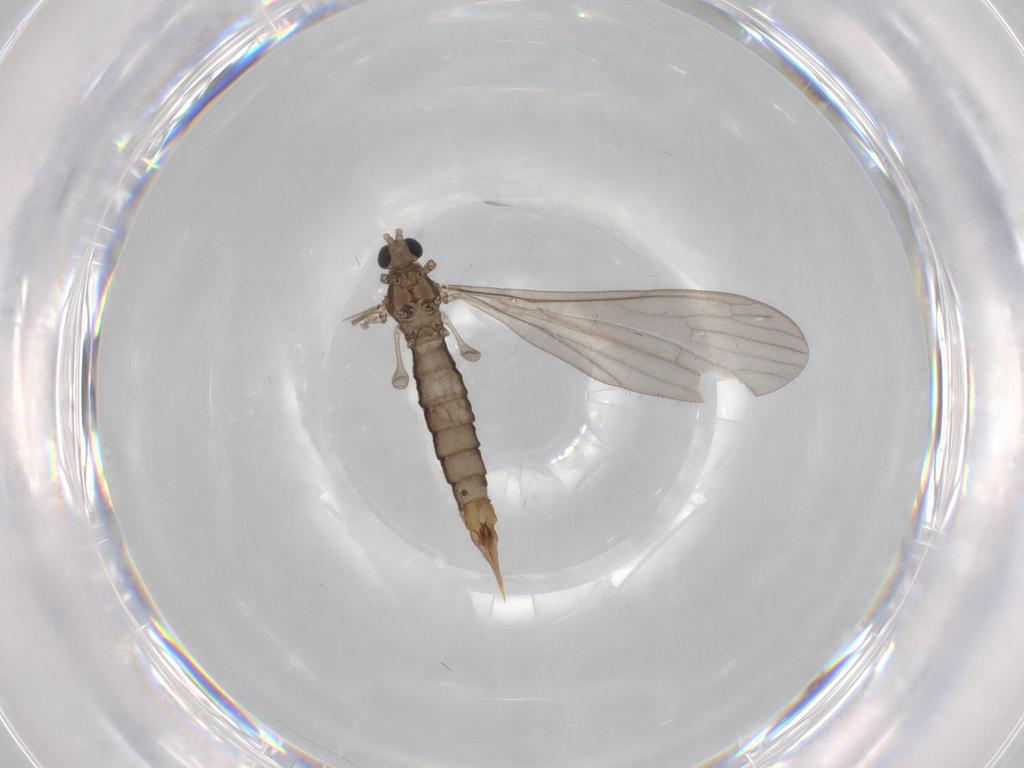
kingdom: Animalia
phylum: Arthropoda
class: Insecta
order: Diptera
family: Limoniidae
